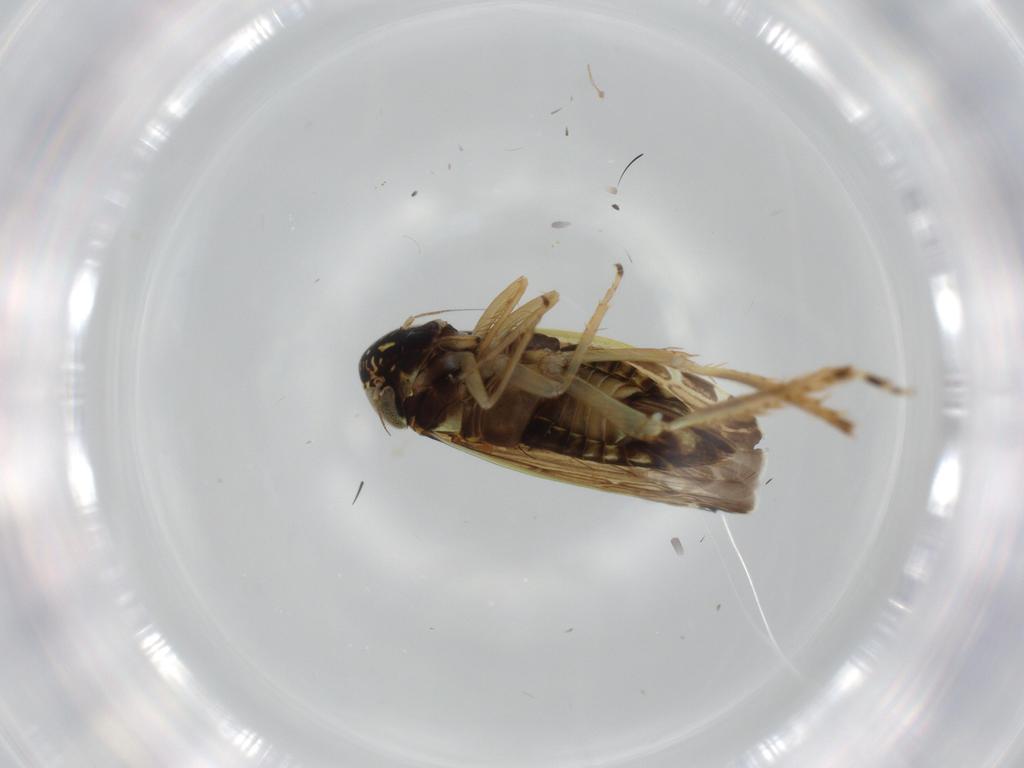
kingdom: Animalia
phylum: Arthropoda
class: Insecta
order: Hemiptera
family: Cicadellidae
